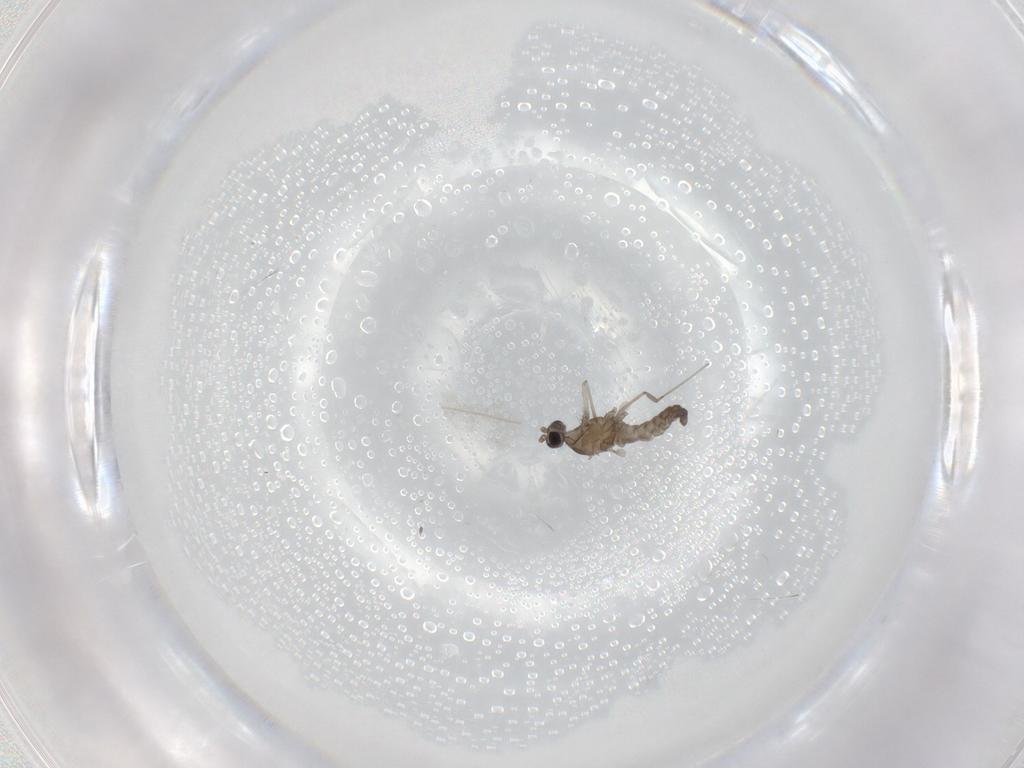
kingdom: Animalia
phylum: Arthropoda
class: Insecta
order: Diptera
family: Cecidomyiidae
